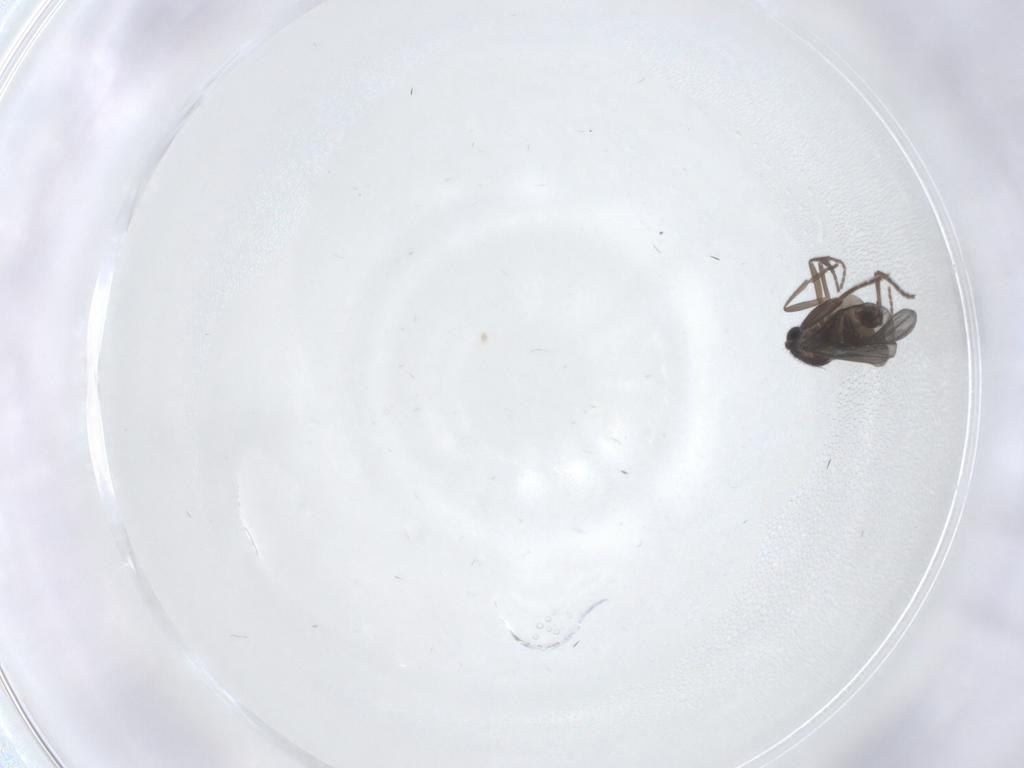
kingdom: Animalia
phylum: Arthropoda
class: Insecta
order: Diptera
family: Phoridae
